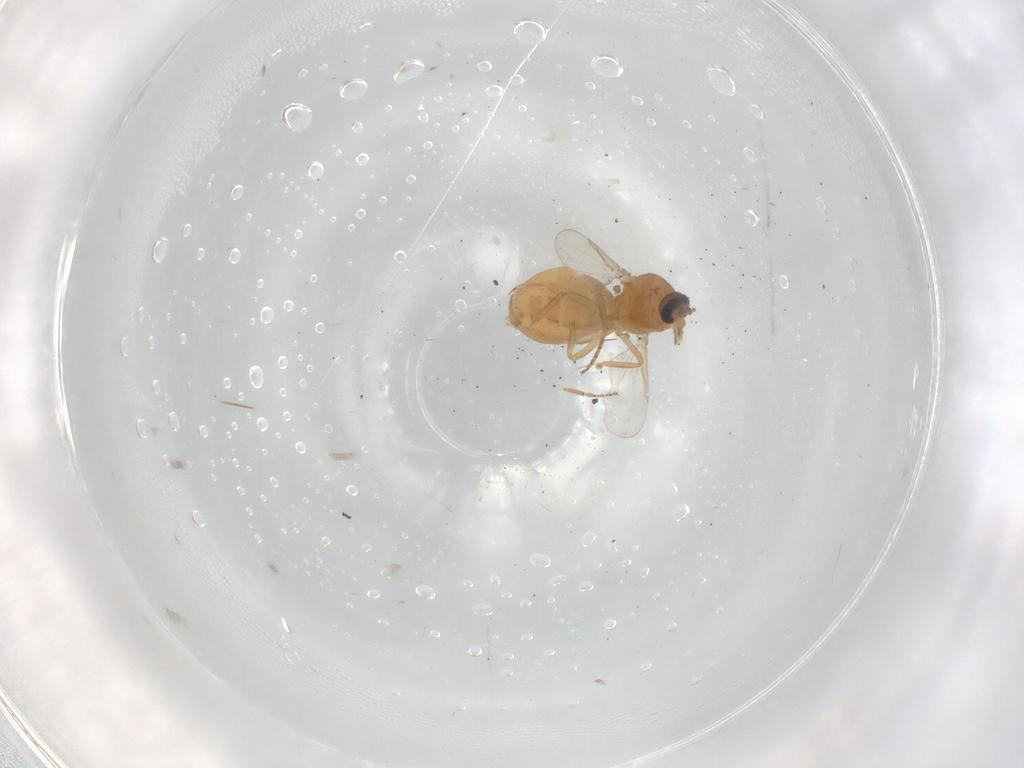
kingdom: Animalia
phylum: Arthropoda
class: Insecta
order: Diptera
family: Ceratopogonidae
